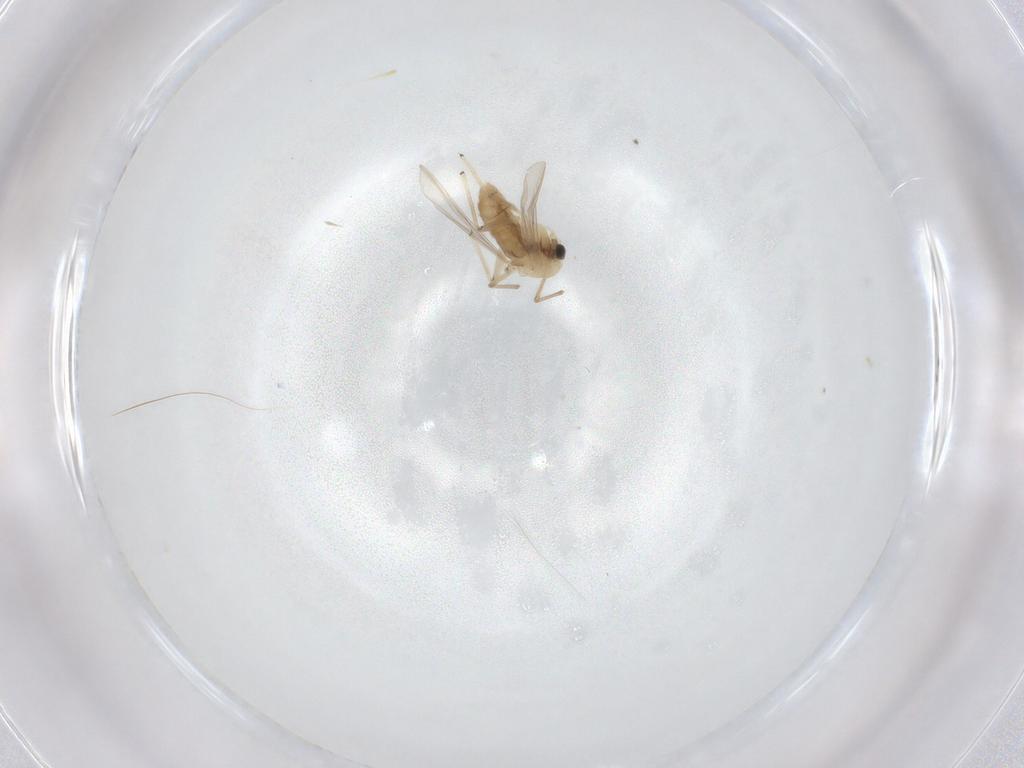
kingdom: Animalia
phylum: Arthropoda
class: Insecta
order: Diptera
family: Chironomidae
